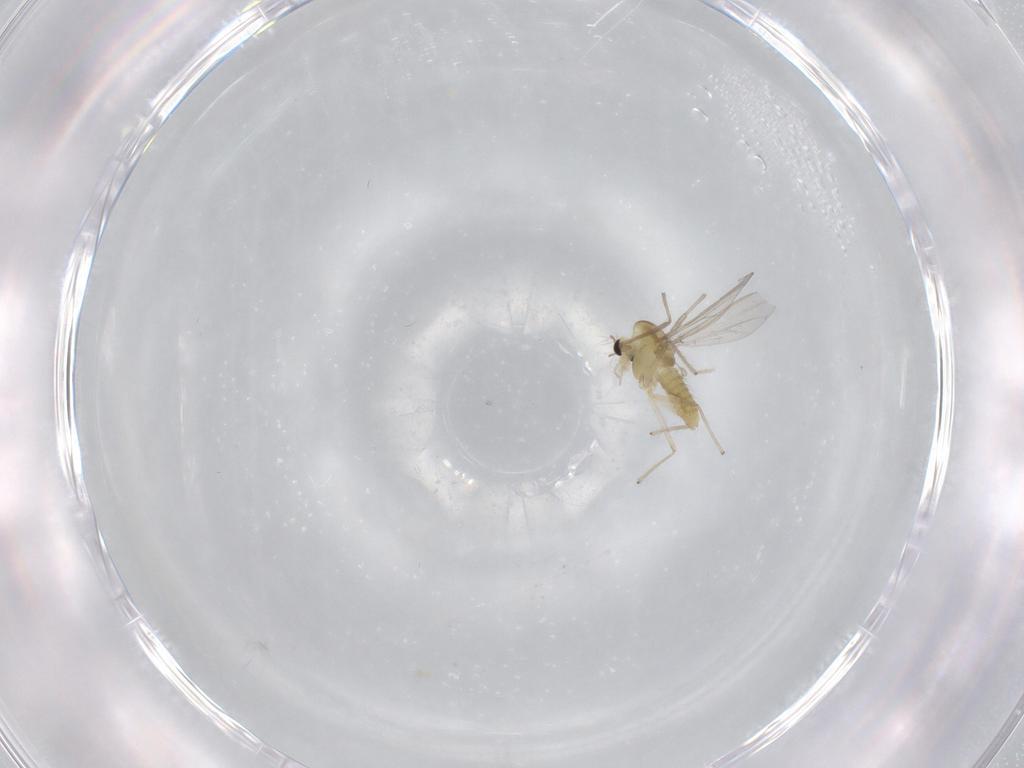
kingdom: Animalia
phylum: Arthropoda
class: Insecta
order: Diptera
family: Chironomidae
